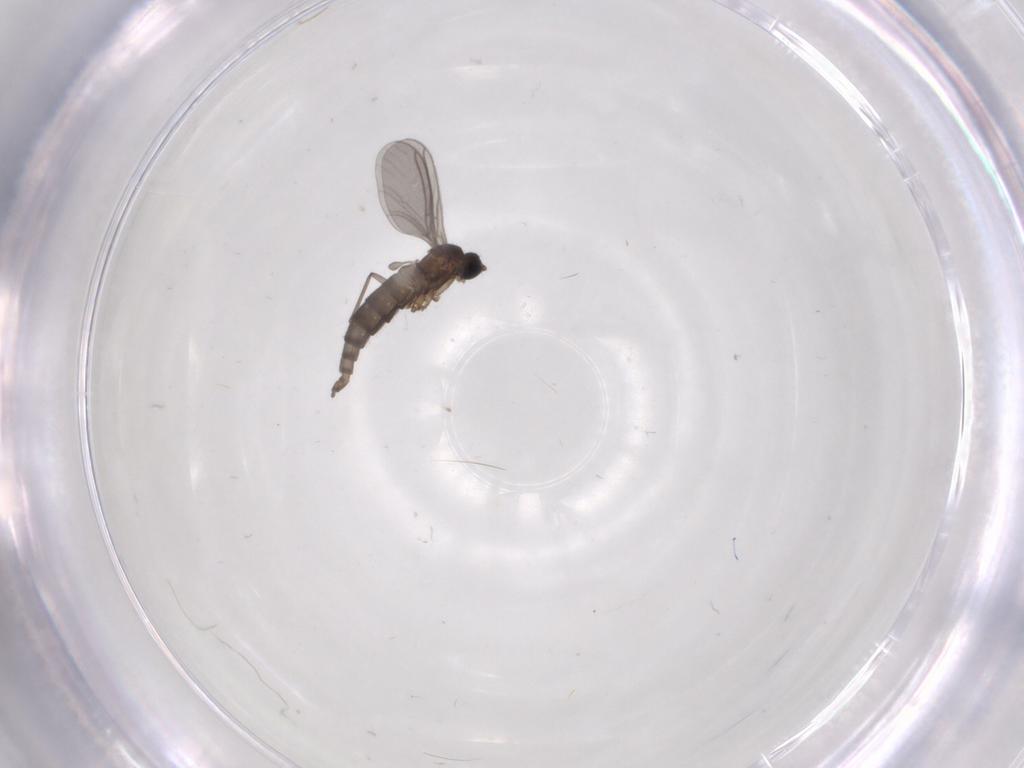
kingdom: Animalia
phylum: Arthropoda
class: Insecta
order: Diptera
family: Sciaridae
